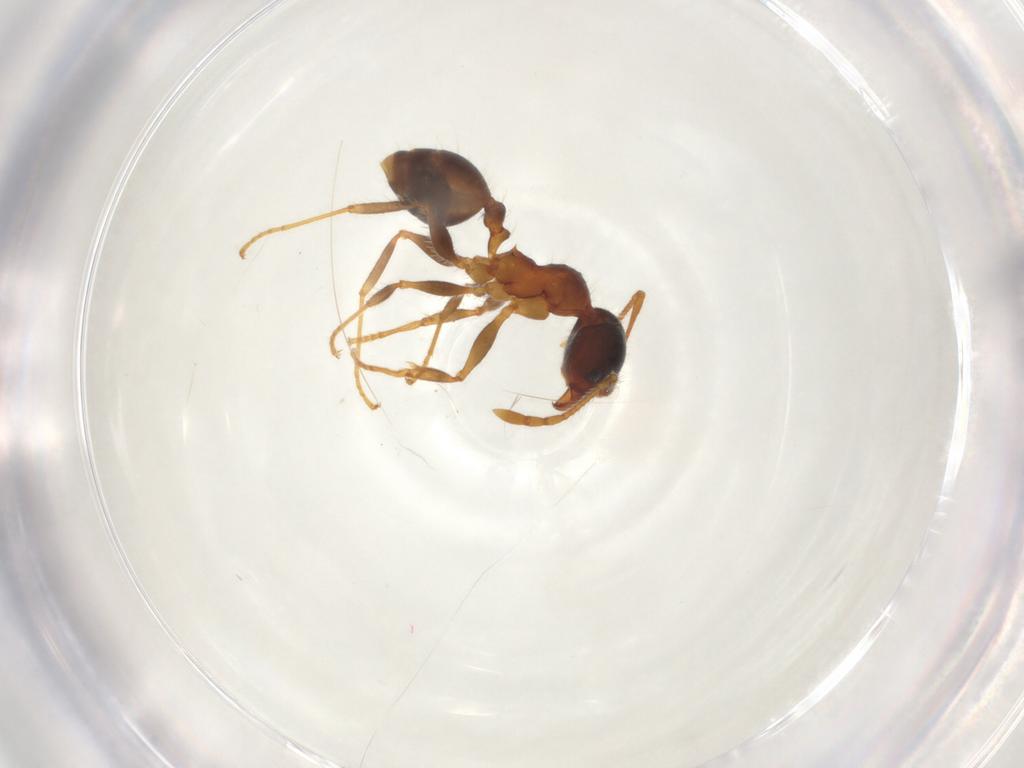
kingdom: Animalia
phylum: Arthropoda
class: Insecta
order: Hymenoptera
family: Formicidae
